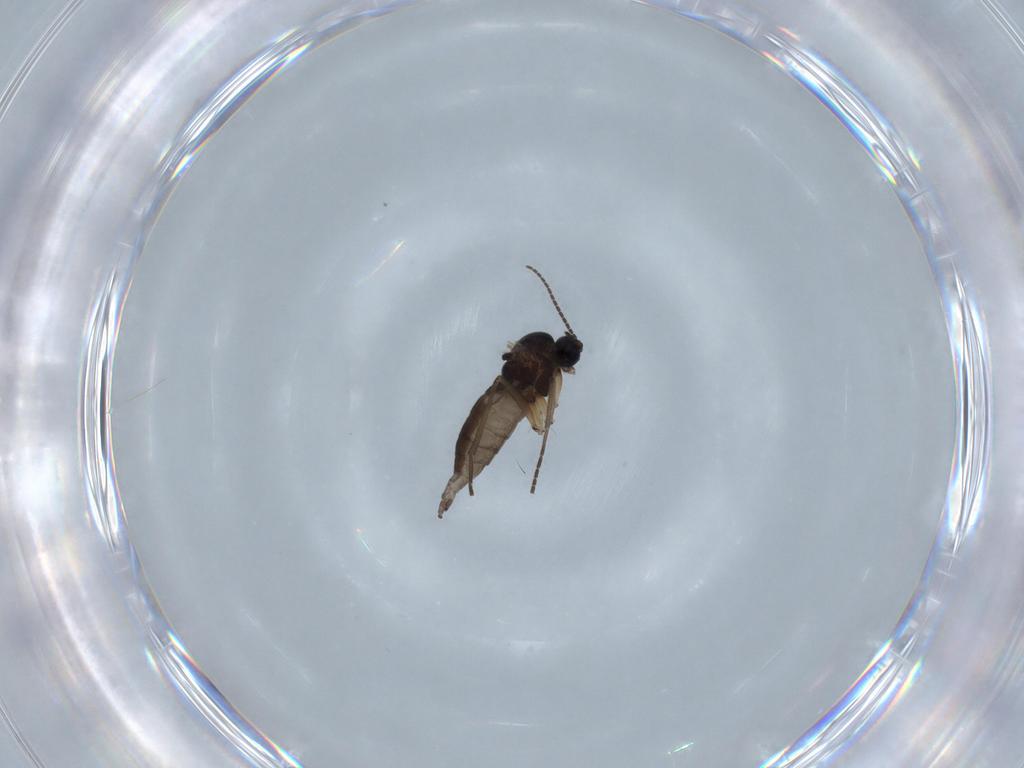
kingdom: Animalia
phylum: Arthropoda
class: Insecta
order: Diptera
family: Sciaridae
